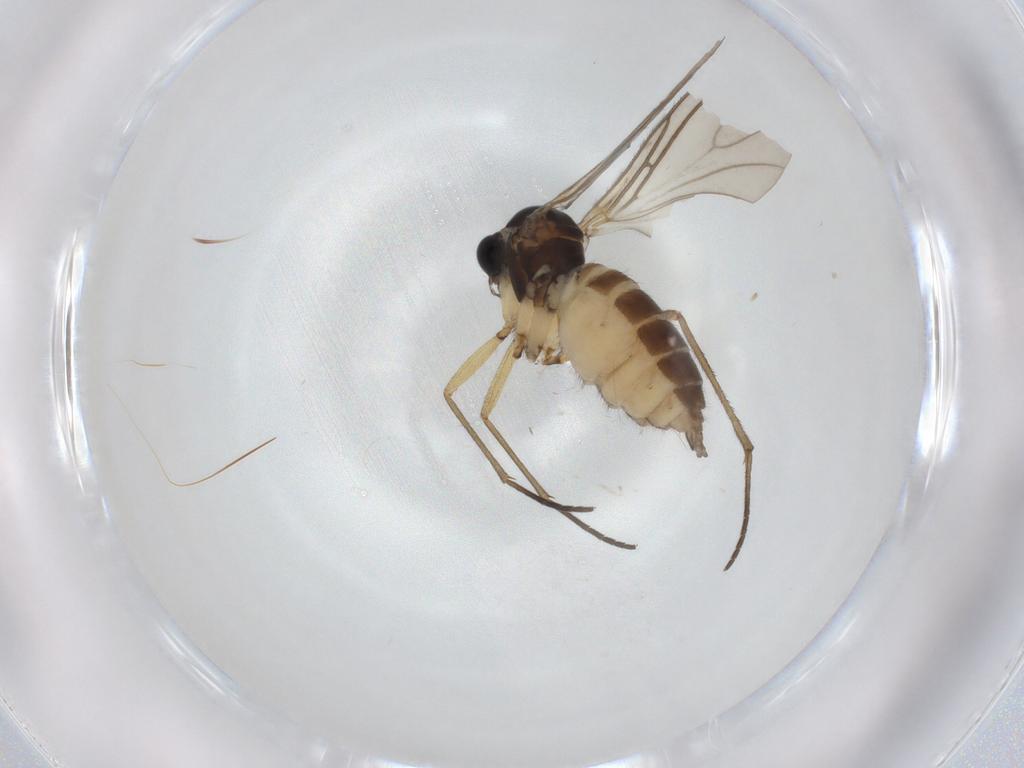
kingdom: Animalia
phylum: Arthropoda
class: Insecta
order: Diptera
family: Sciaridae
